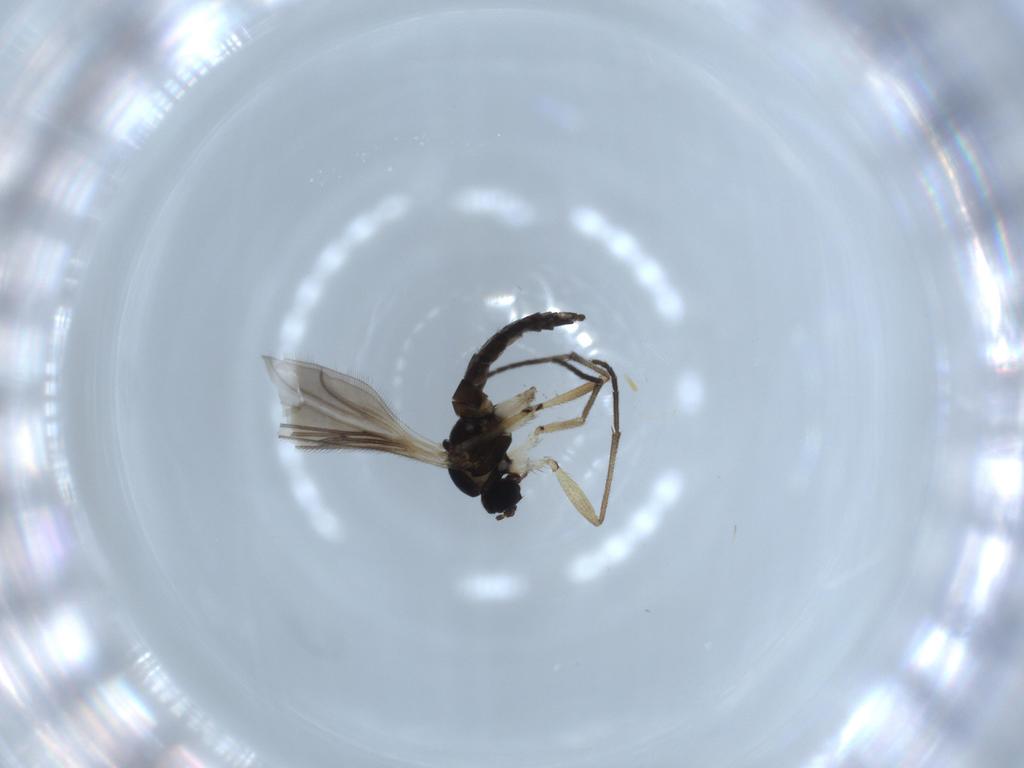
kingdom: Animalia
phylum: Arthropoda
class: Insecta
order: Diptera
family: Sciaridae
